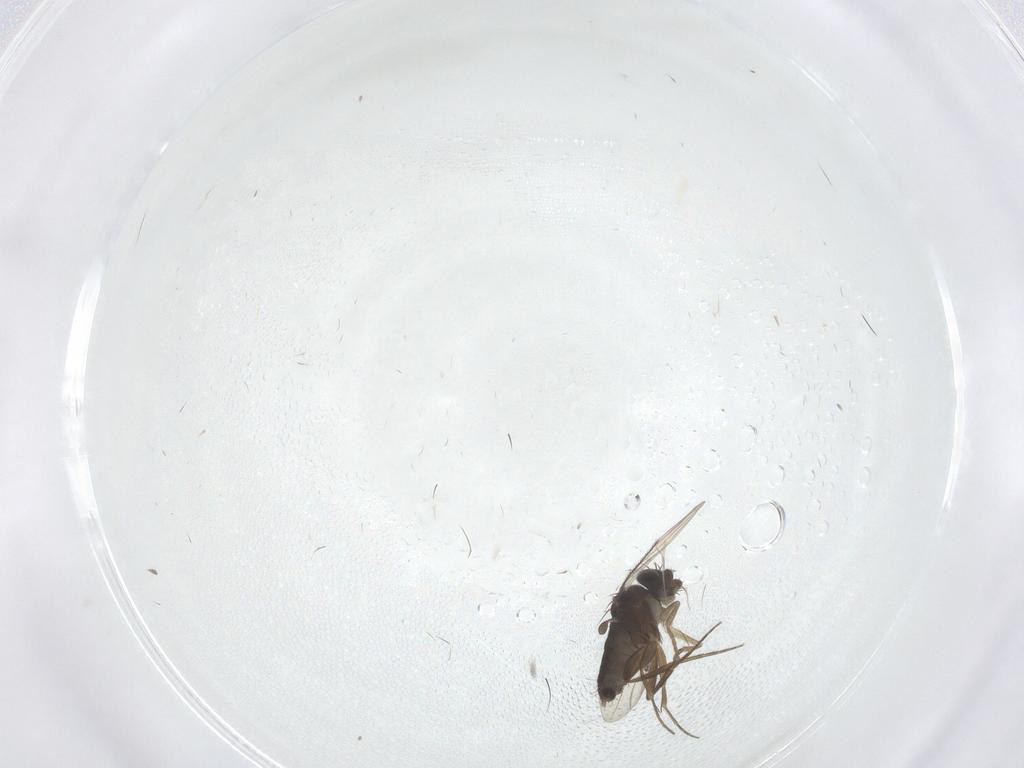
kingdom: Animalia
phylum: Arthropoda
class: Insecta
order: Diptera
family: Phoridae
